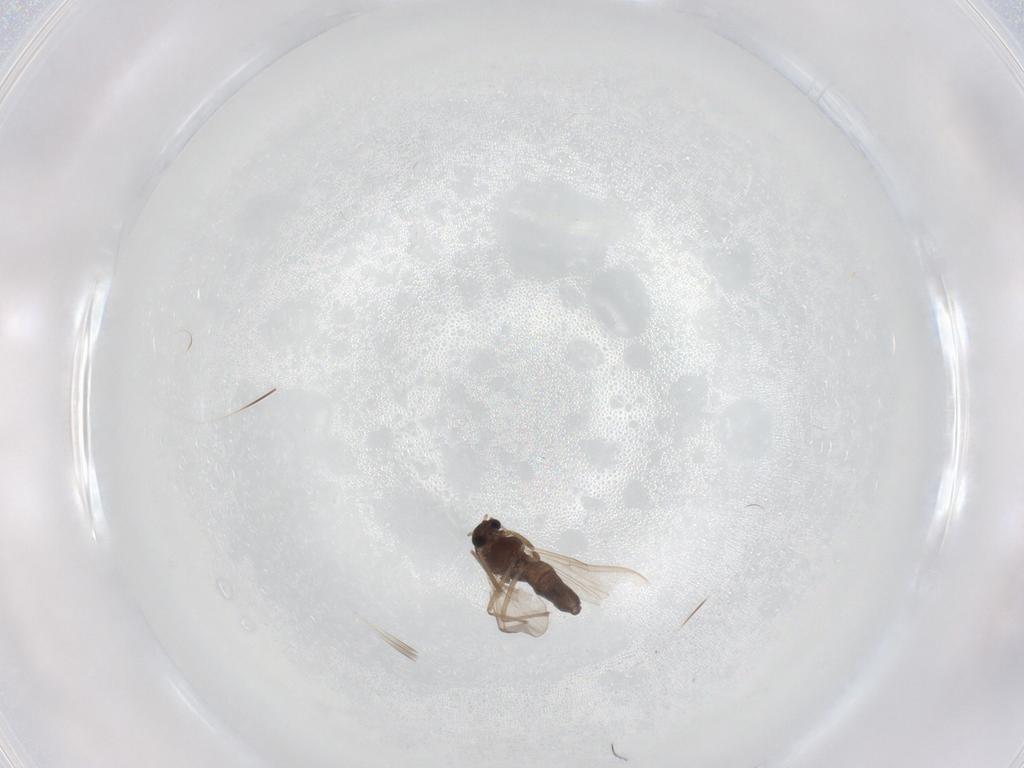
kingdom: Animalia
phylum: Arthropoda
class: Insecta
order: Diptera
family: Chironomidae
